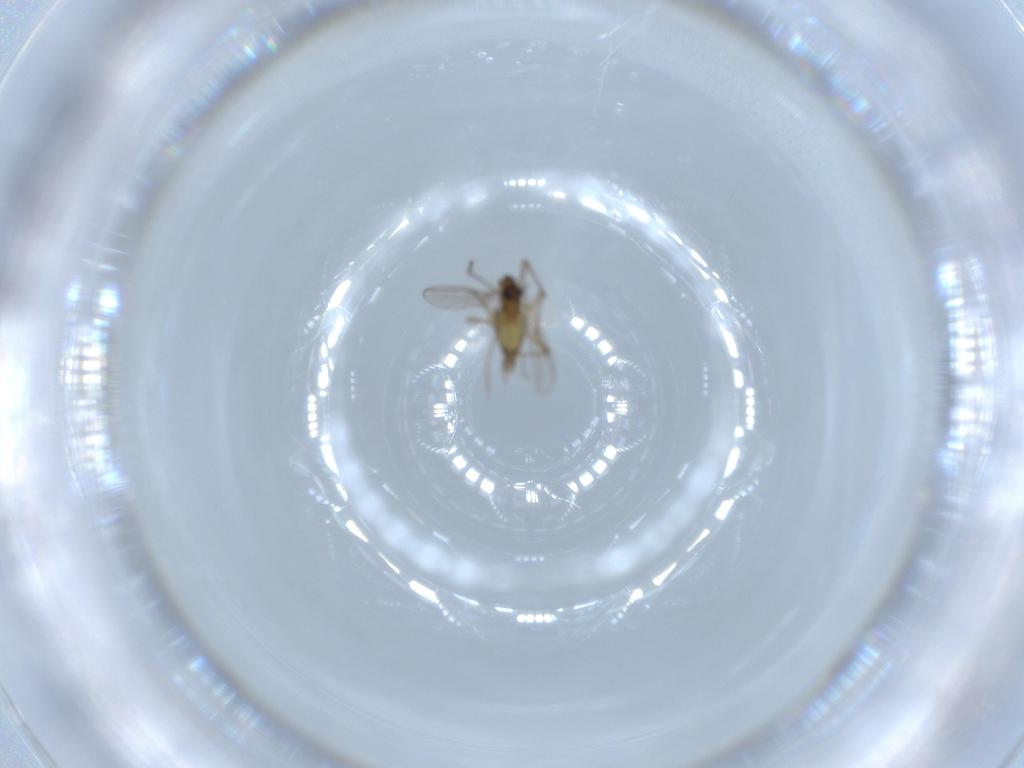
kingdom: Animalia
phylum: Arthropoda
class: Insecta
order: Diptera
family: Chironomidae
